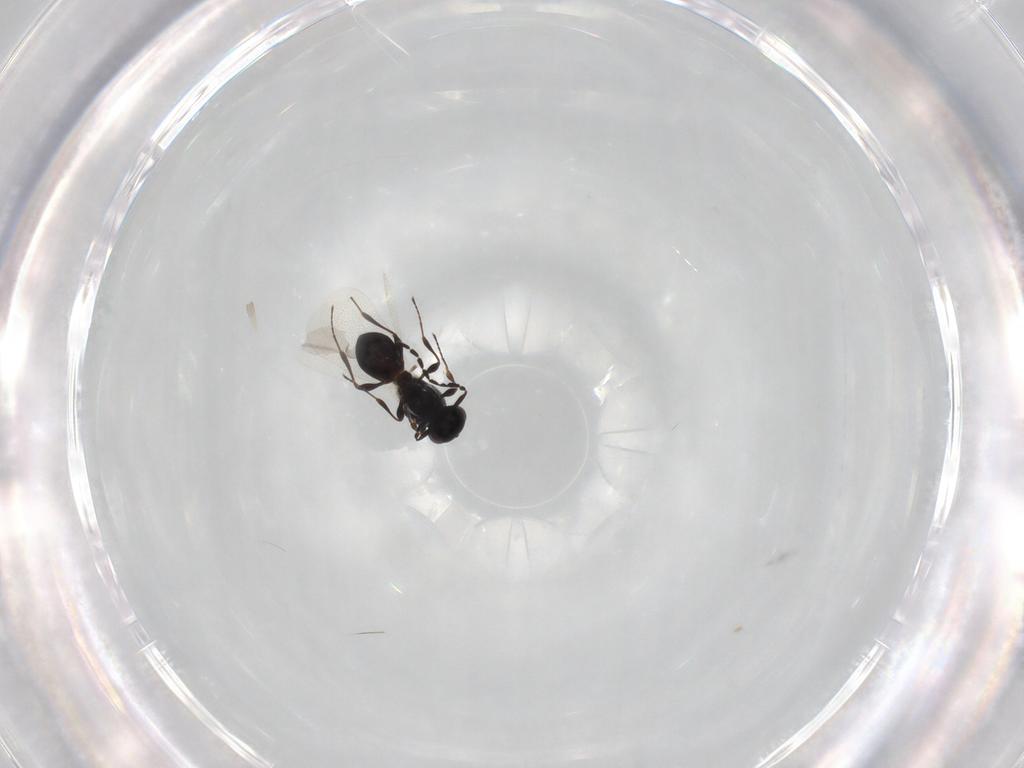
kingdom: Animalia
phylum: Arthropoda
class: Insecta
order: Hymenoptera
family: Platygastridae
